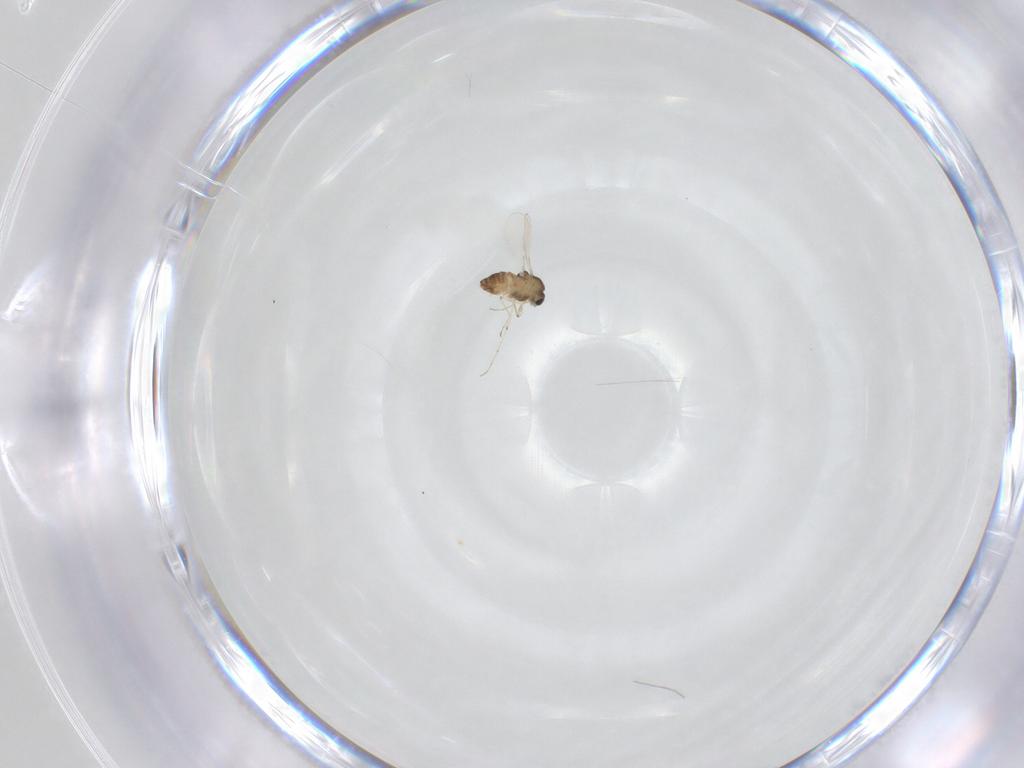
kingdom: Animalia
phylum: Arthropoda
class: Insecta
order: Diptera
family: Chironomidae
